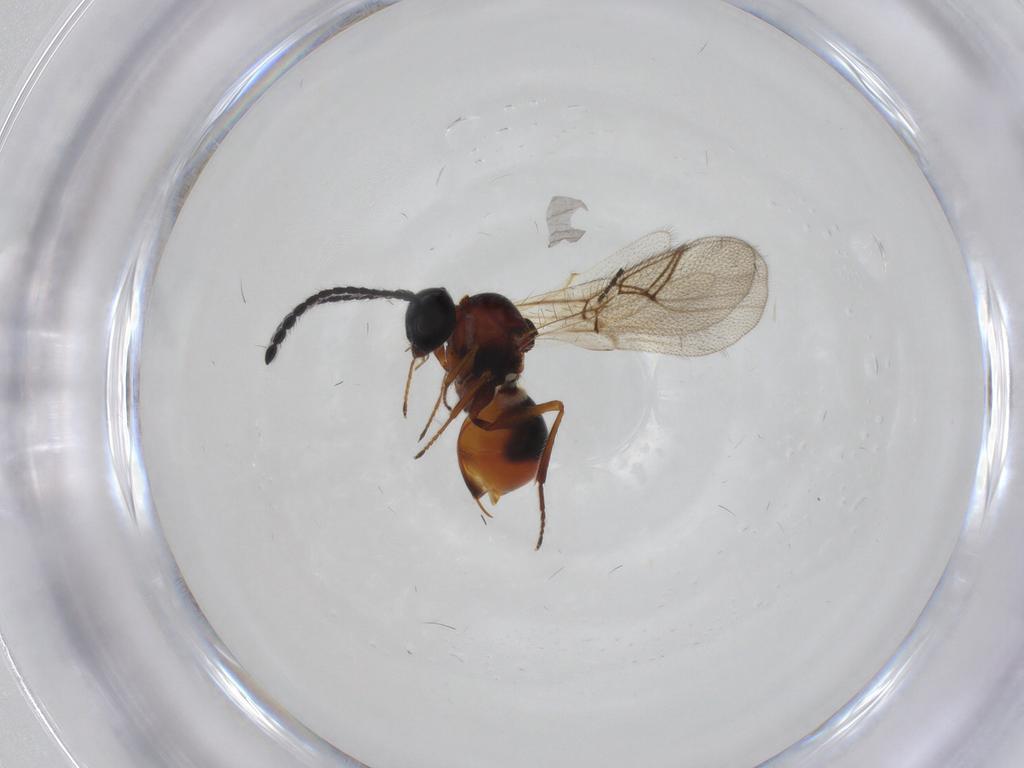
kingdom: Animalia
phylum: Arthropoda
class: Insecta
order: Hymenoptera
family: Figitidae
